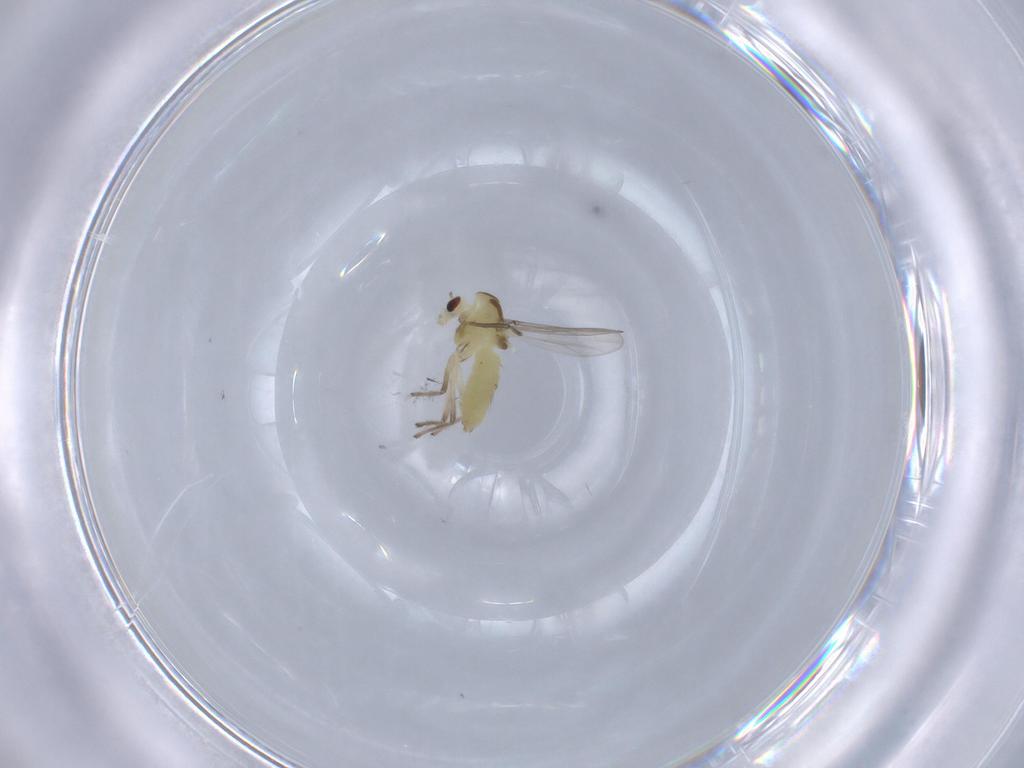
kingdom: Animalia
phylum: Arthropoda
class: Insecta
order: Diptera
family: Chironomidae
